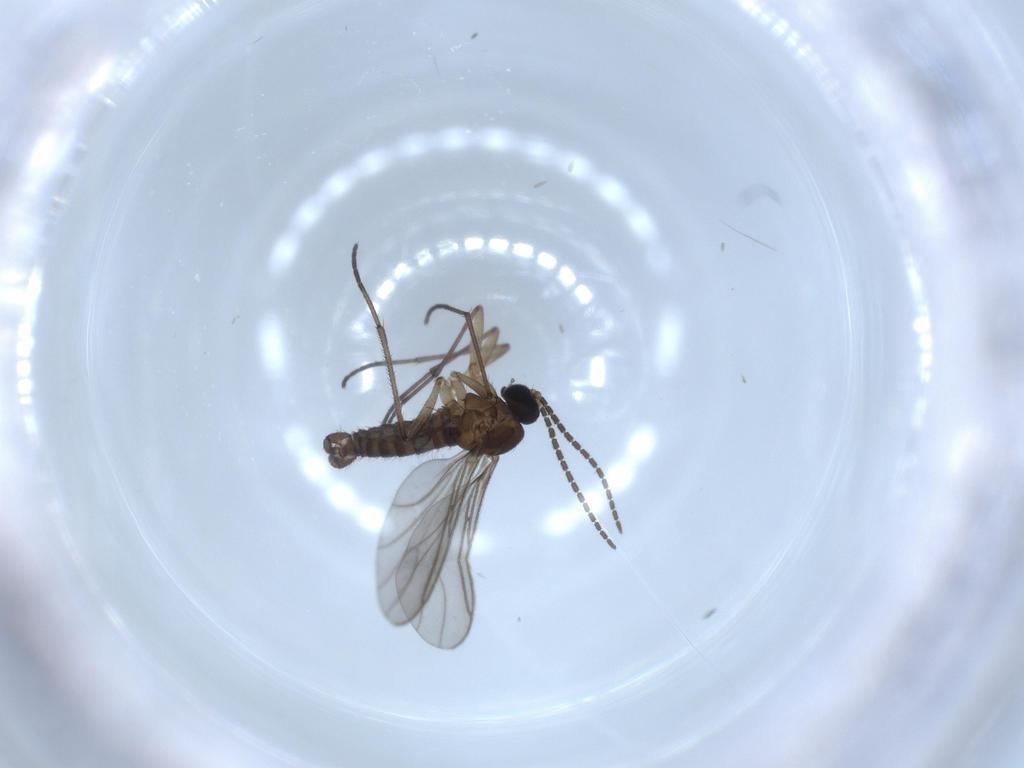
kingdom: Animalia
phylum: Arthropoda
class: Insecta
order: Diptera
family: Sciaridae
